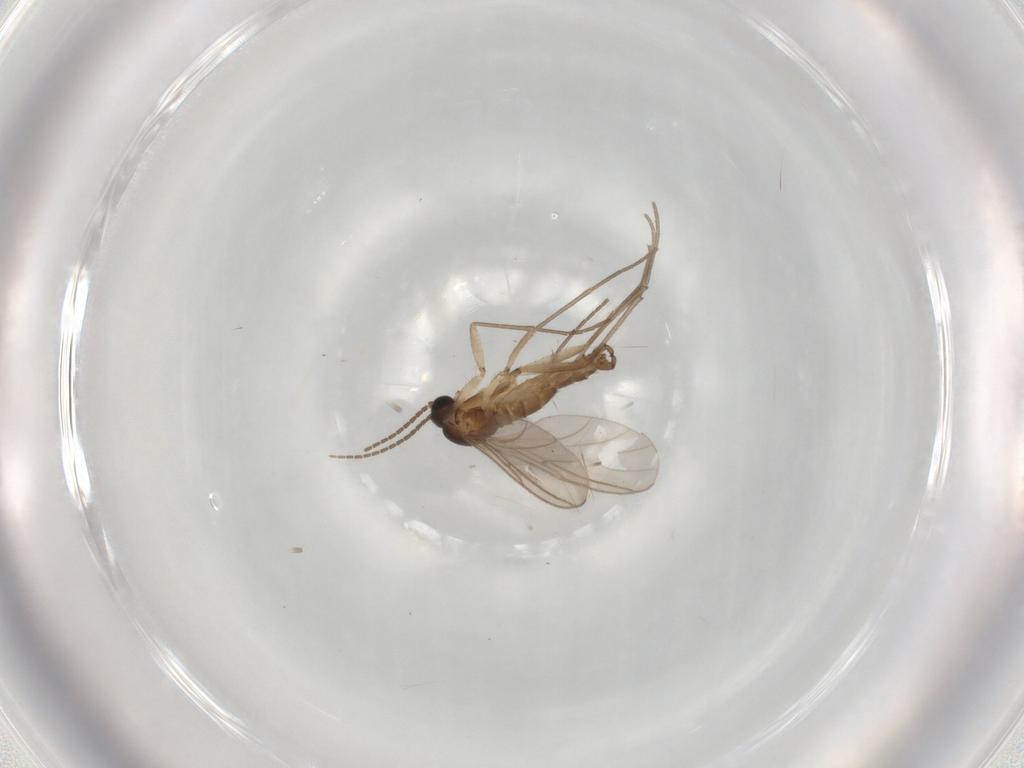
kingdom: Animalia
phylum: Arthropoda
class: Insecta
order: Diptera
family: Sciaridae
